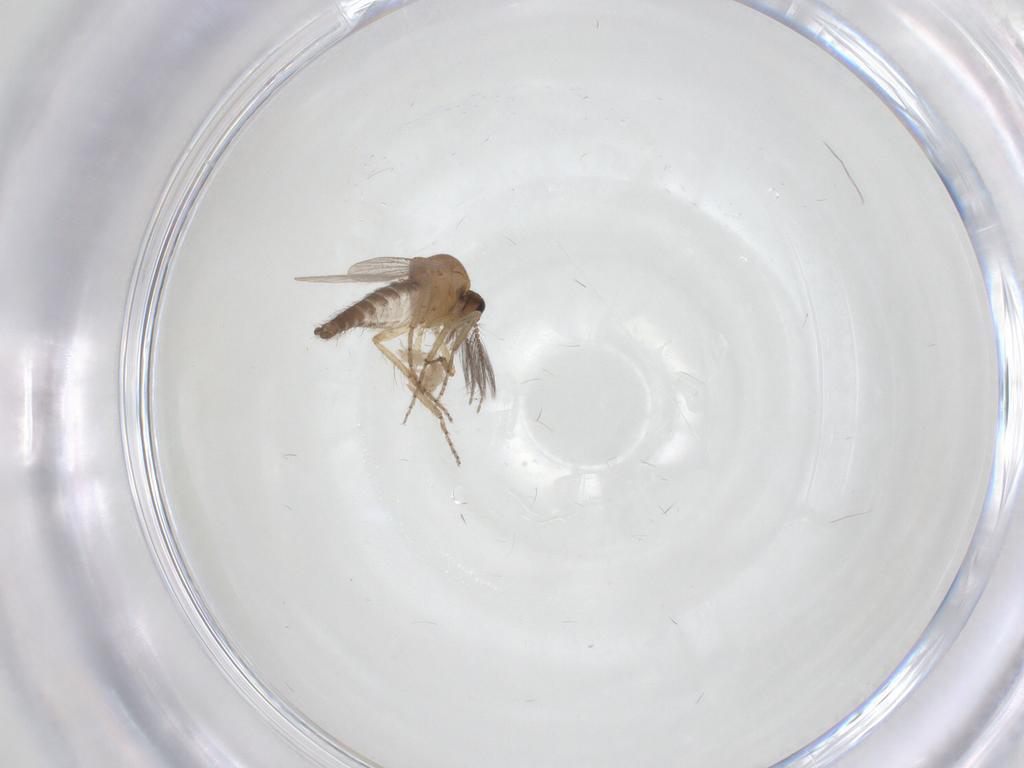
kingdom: Animalia
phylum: Arthropoda
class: Insecta
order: Diptera
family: Ceratopogonidae
